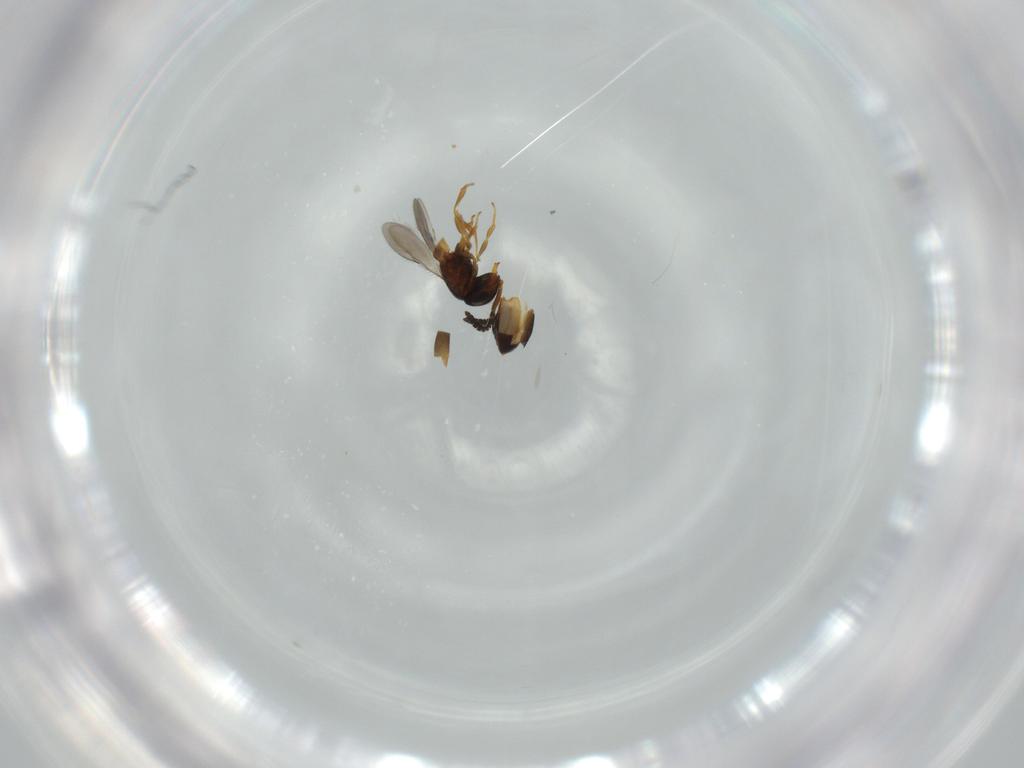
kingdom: Animalia
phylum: Arthropoda
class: Insecta
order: Hymenoptera
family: Scelionidae
